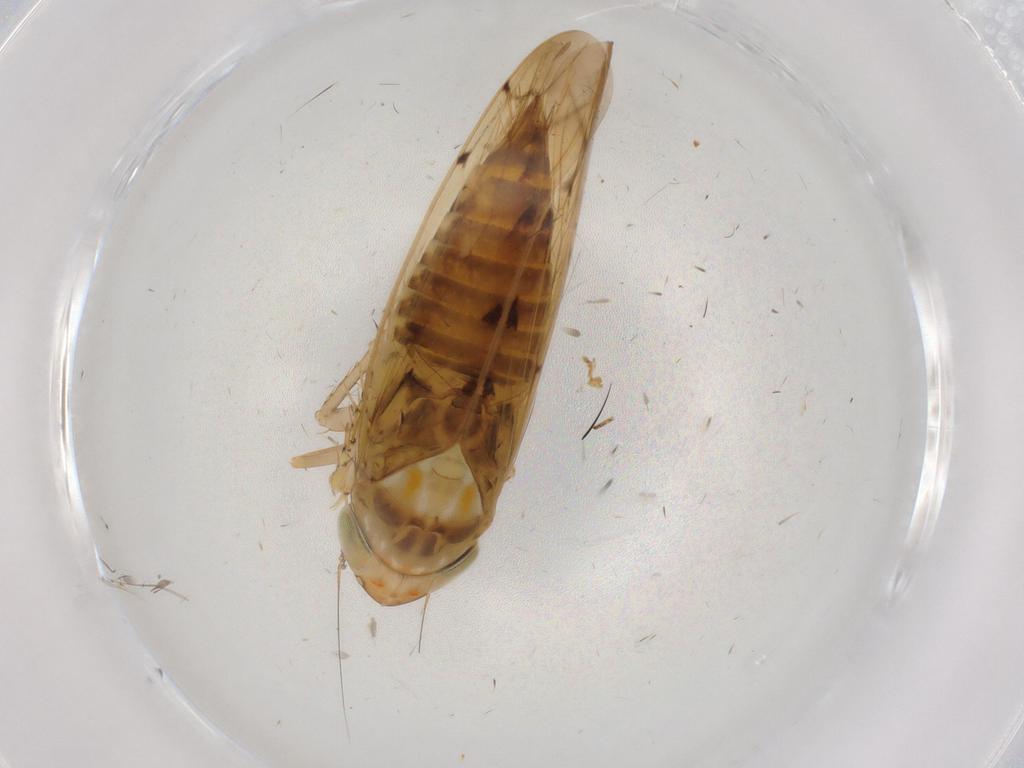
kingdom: Animalia
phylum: Arthropoda
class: Insecta
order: Hemiptera
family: Cicadellidae
